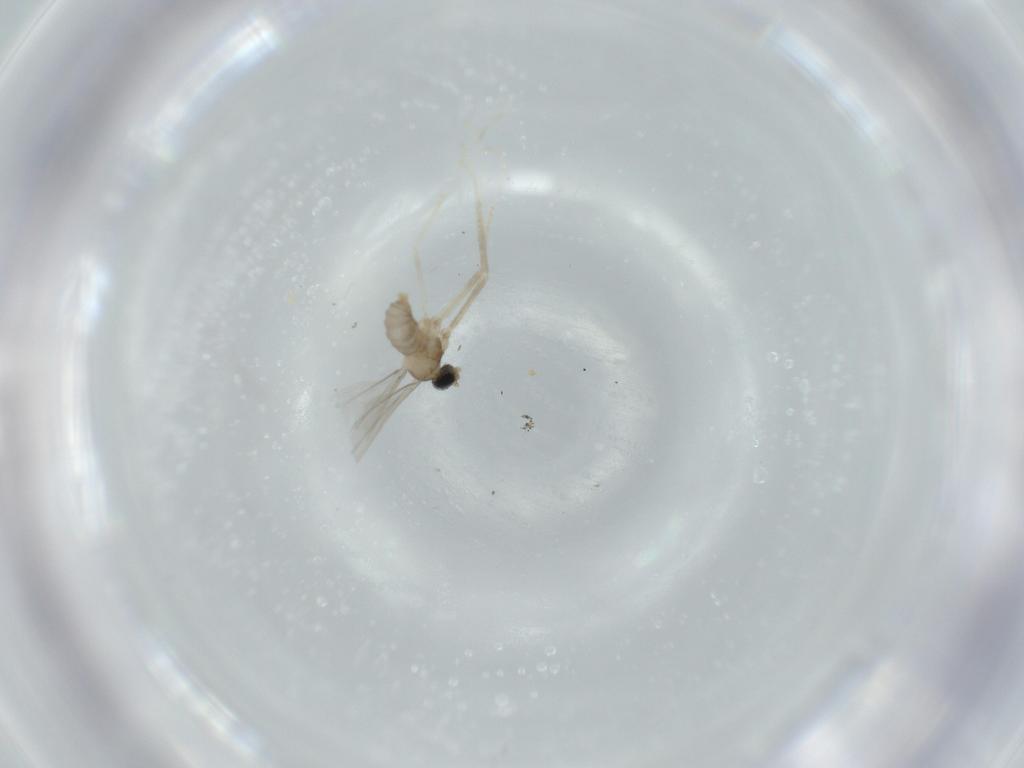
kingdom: Animalia
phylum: Arthropoda
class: Insecta
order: Diptera
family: Cecidomyiidae
